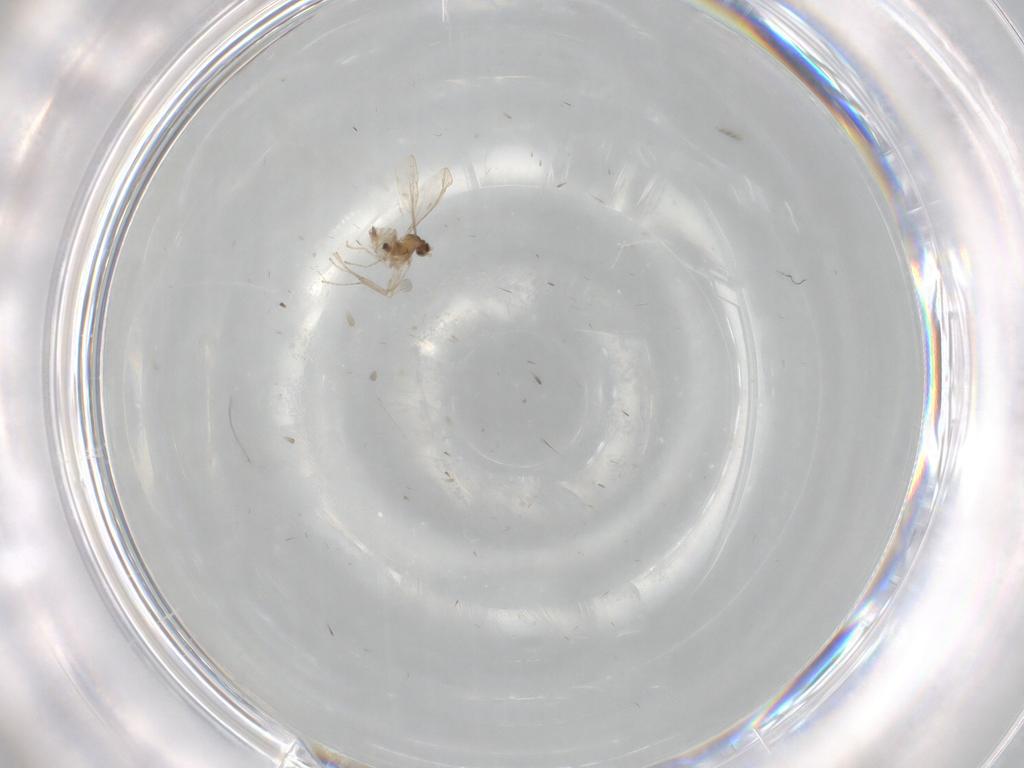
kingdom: Animalia
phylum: Arthropoda
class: Insecta
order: Diptera
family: Cecidomyiidae
